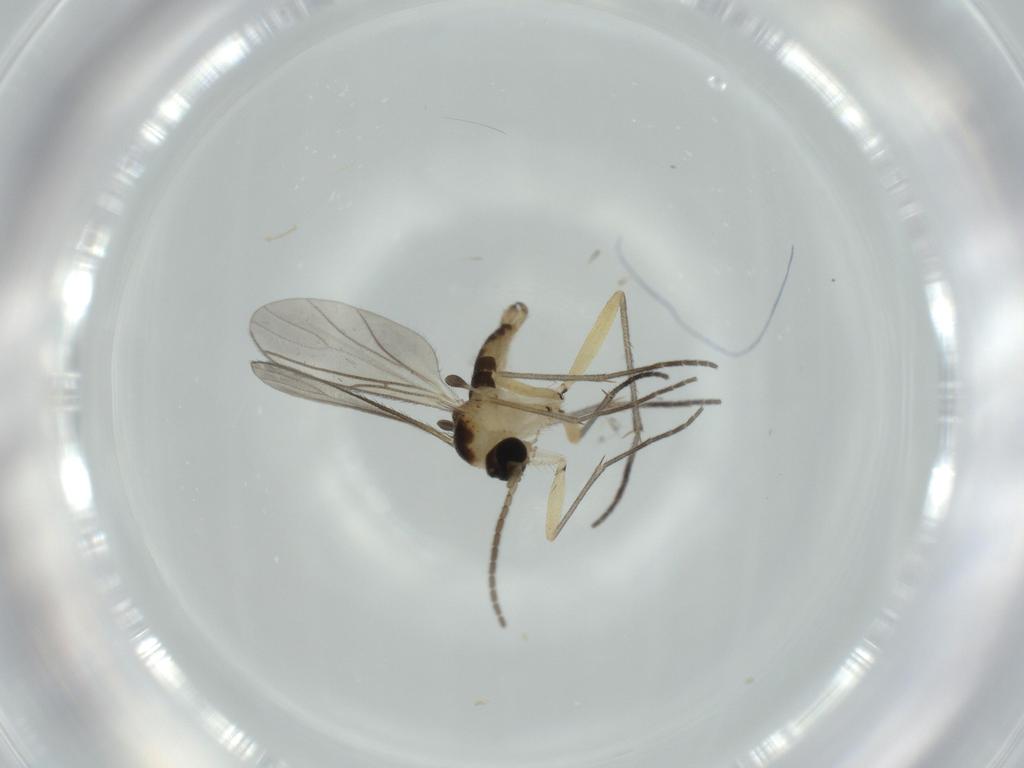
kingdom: Animalia
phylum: Arthropoda
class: Insecta
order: Diptera
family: Sciaridae
